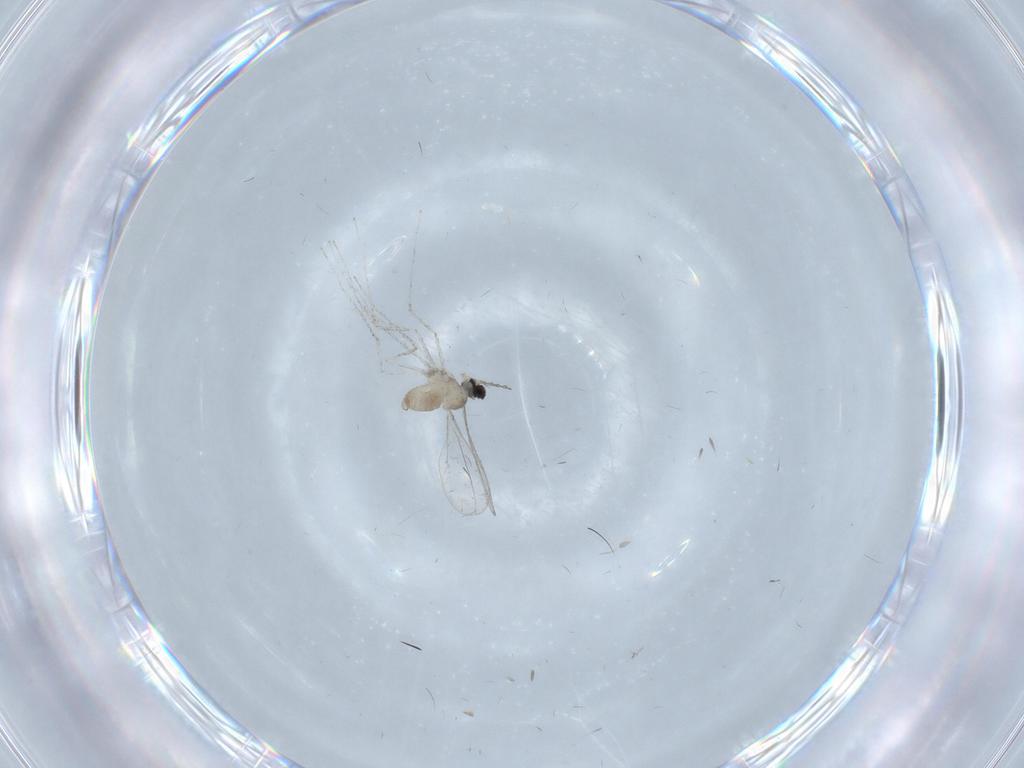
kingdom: Animalia
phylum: Arthropoda
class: Insecta
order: Diptera
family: Cecidomyiidae
